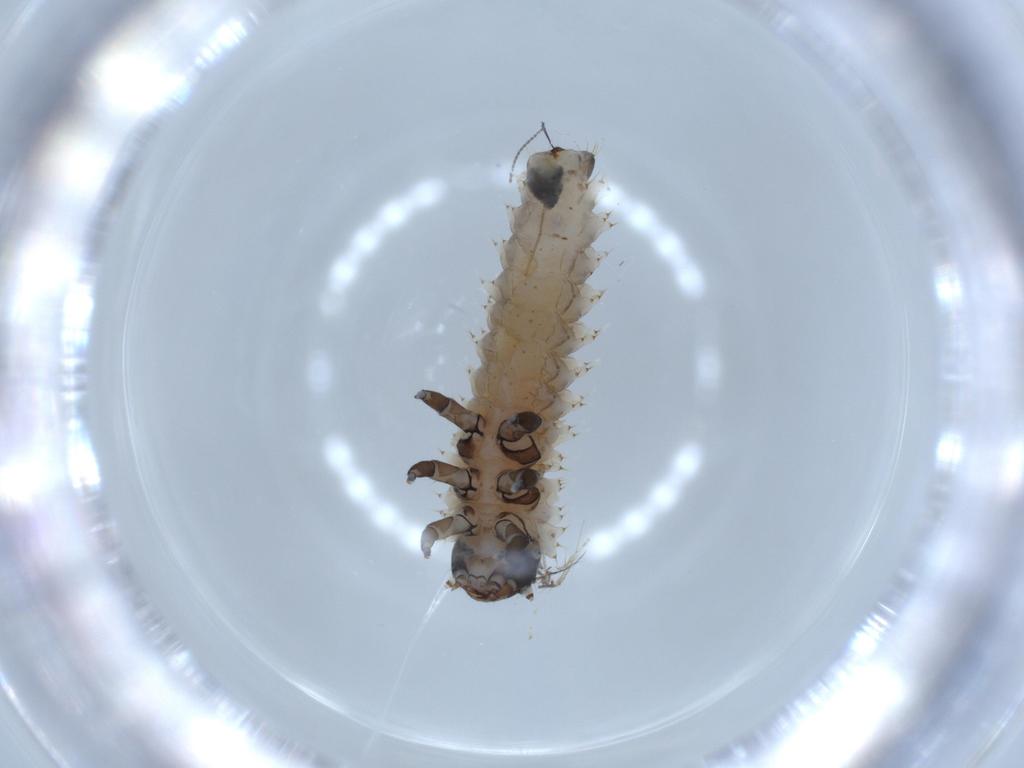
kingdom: Animalia
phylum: Arthropoda
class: Insecta
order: Coleoptera
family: Chrysomelidae
